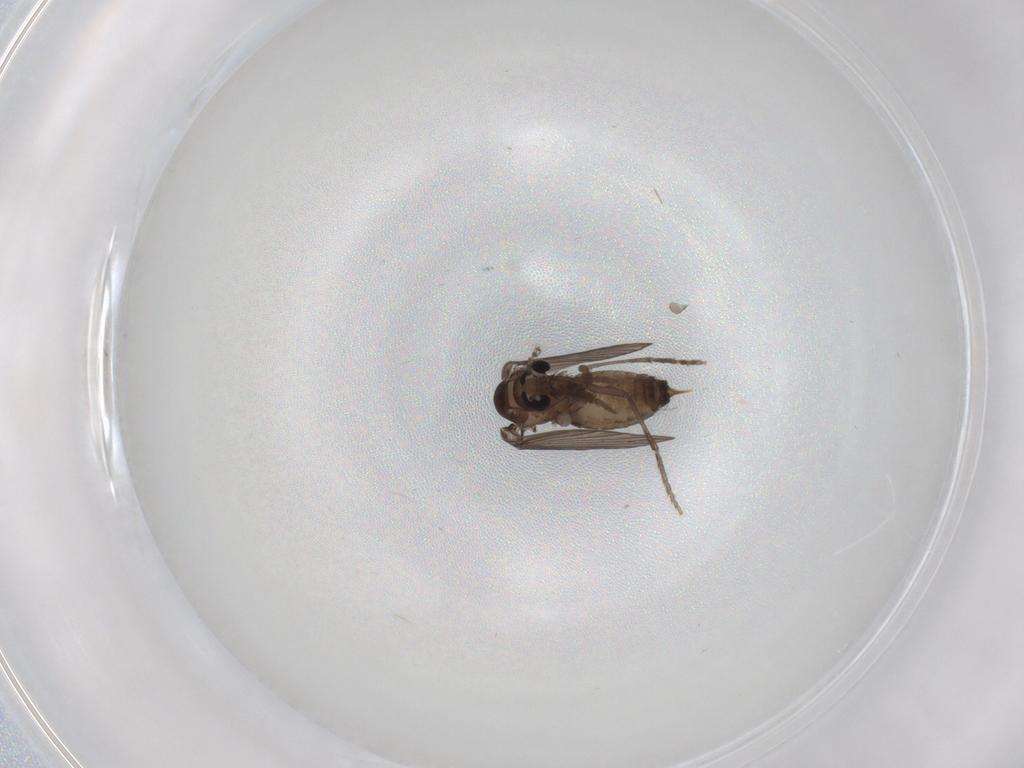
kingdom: Animalia
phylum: Arthropoda
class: Insecta
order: Diptera
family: Psychodidae
